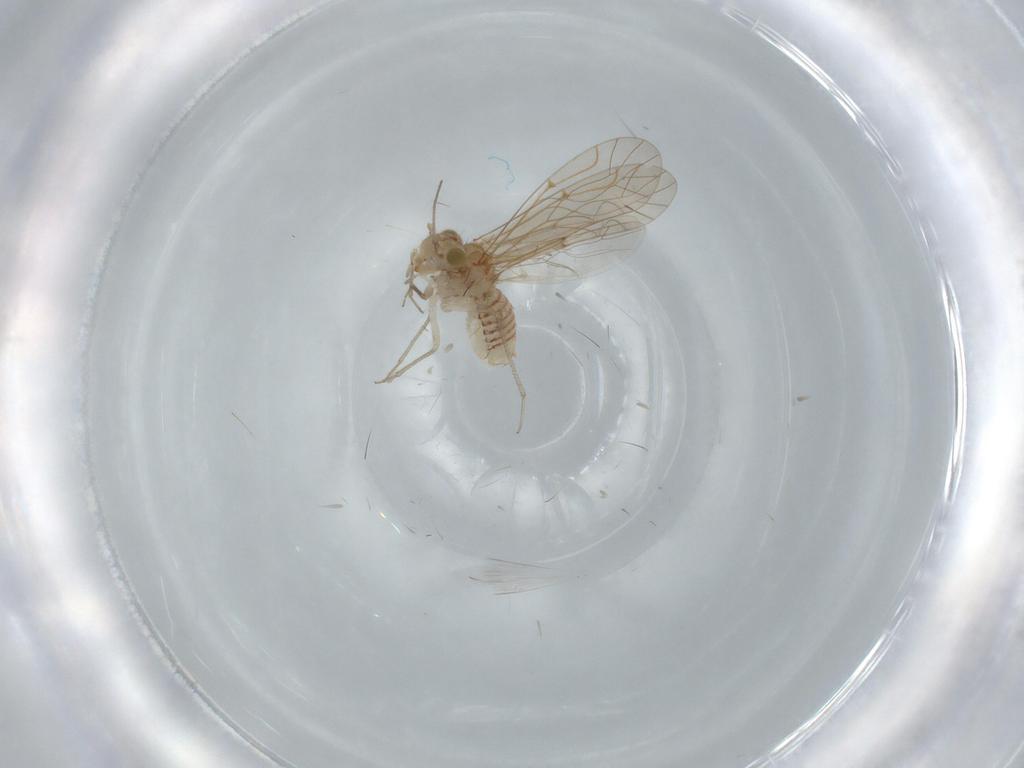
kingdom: Animalia
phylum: Arthropoda
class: Insecta
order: Psocodea
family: Lachesillidae
